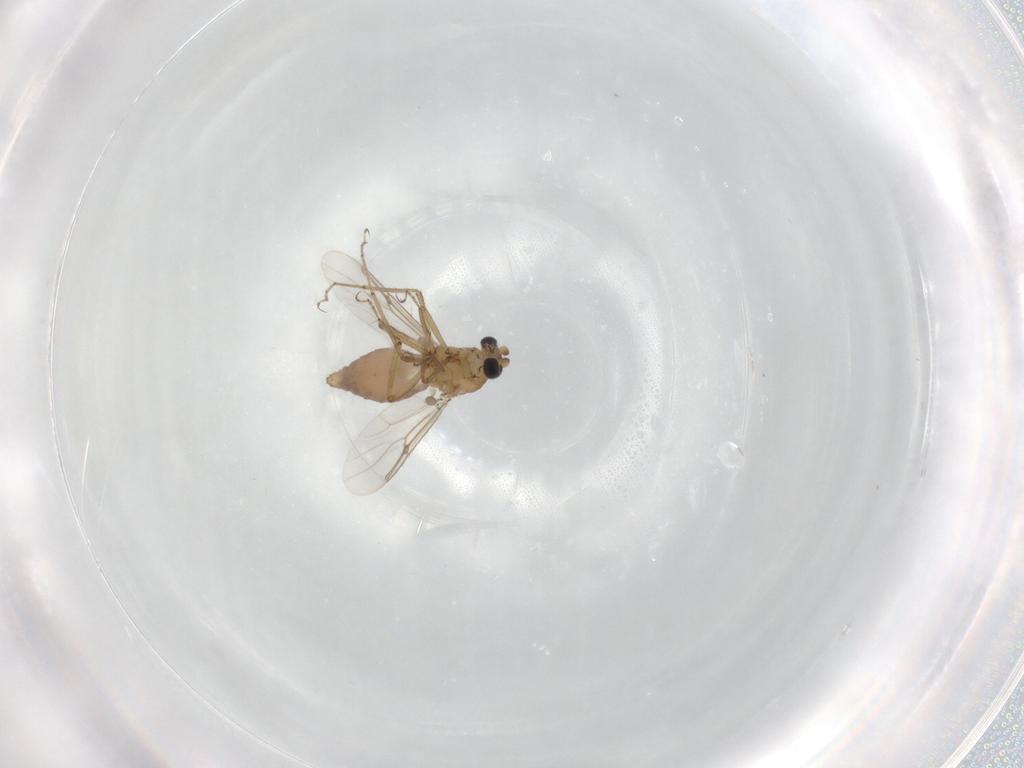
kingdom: Animalia
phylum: Arthropoda
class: Insecta
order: Diptera
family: Ceratopogonidae
